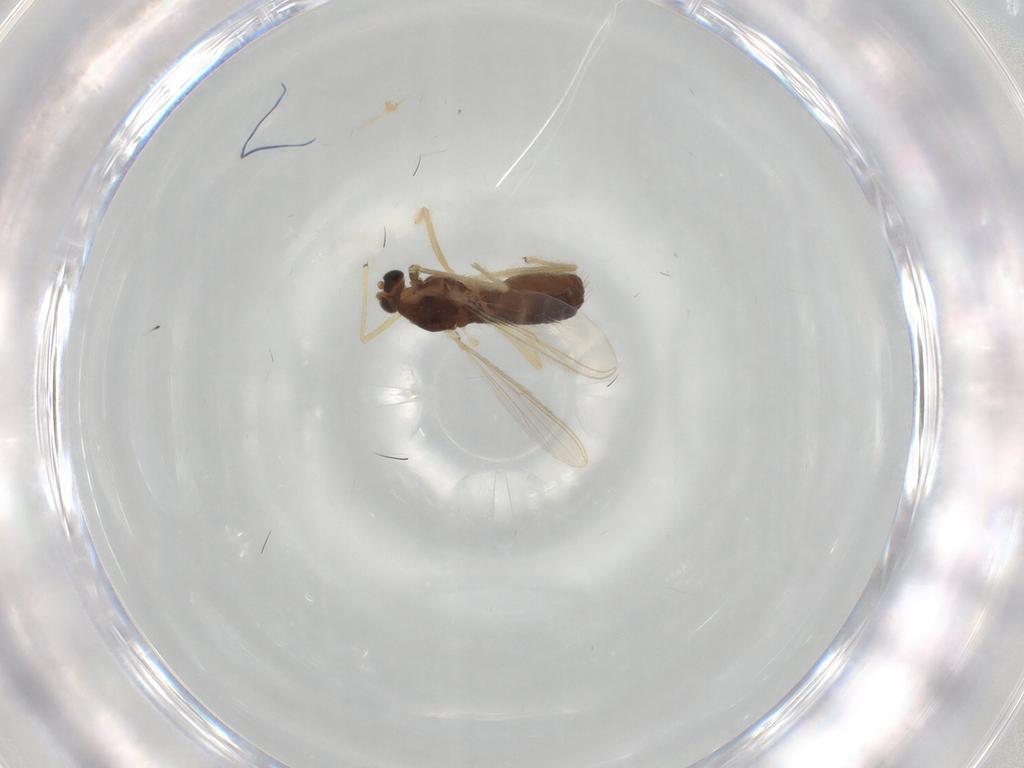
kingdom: Animalia
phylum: Arthropoda
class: Insecta
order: Diptera
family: Chironomidae
